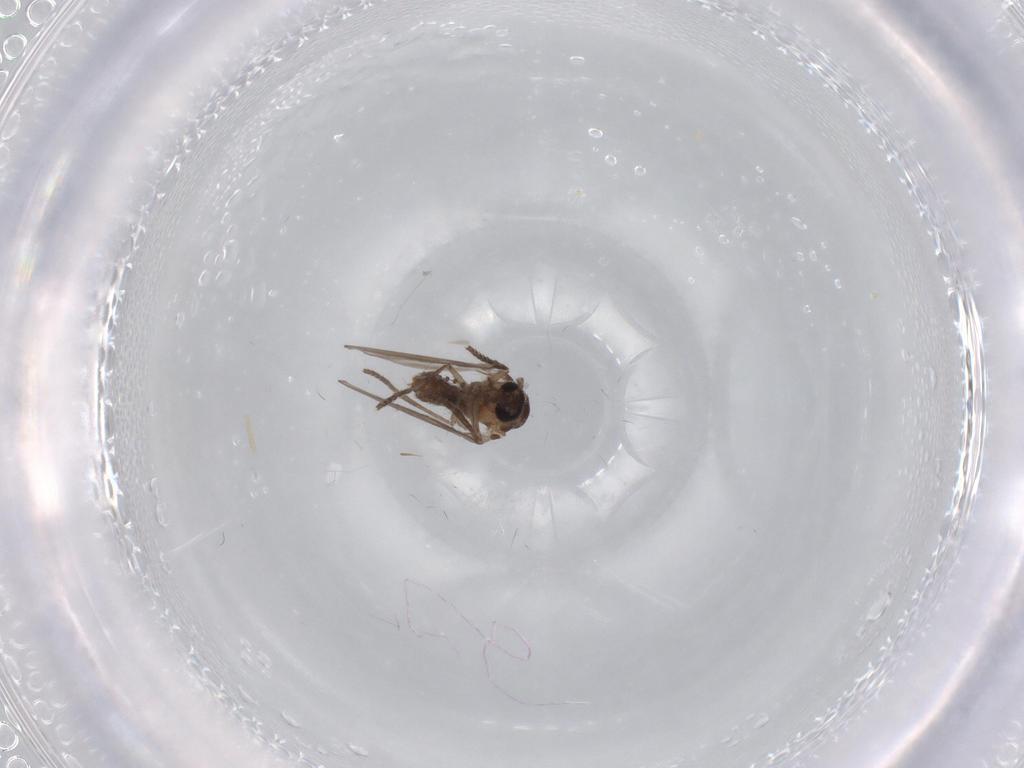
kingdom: Animalia
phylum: Arthropoda
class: Insecta
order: Diptera
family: Psychodidae
